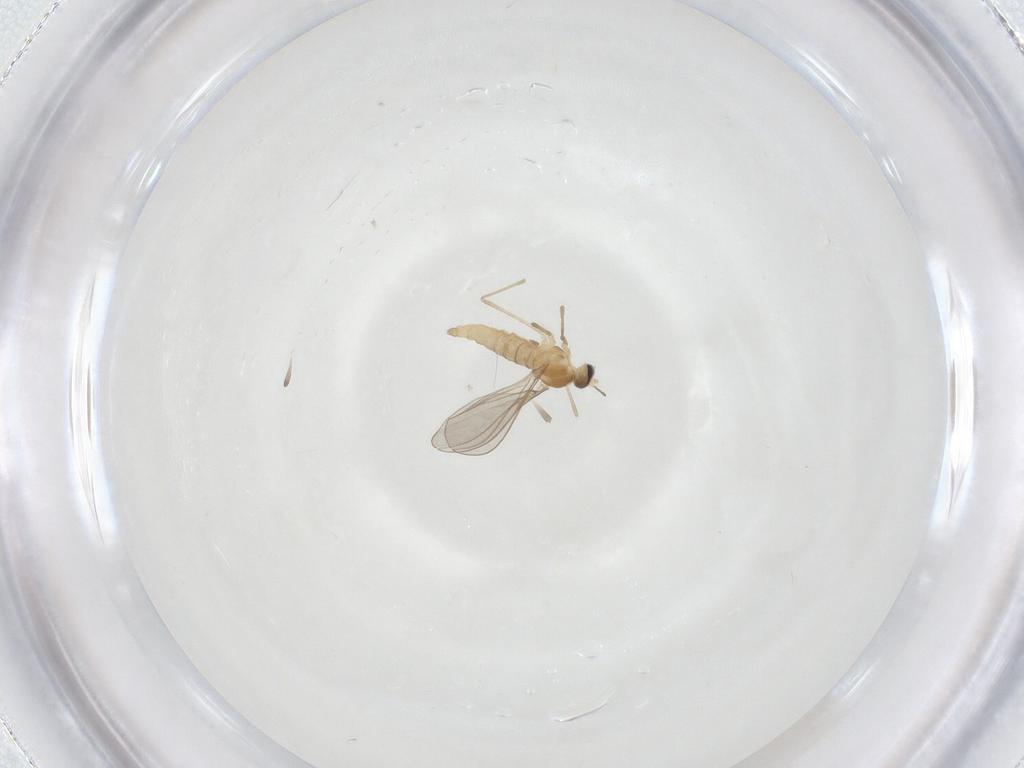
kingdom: Animalia
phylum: Arthropoda
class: Insecta
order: Diptera
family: Cecidomyiidae
